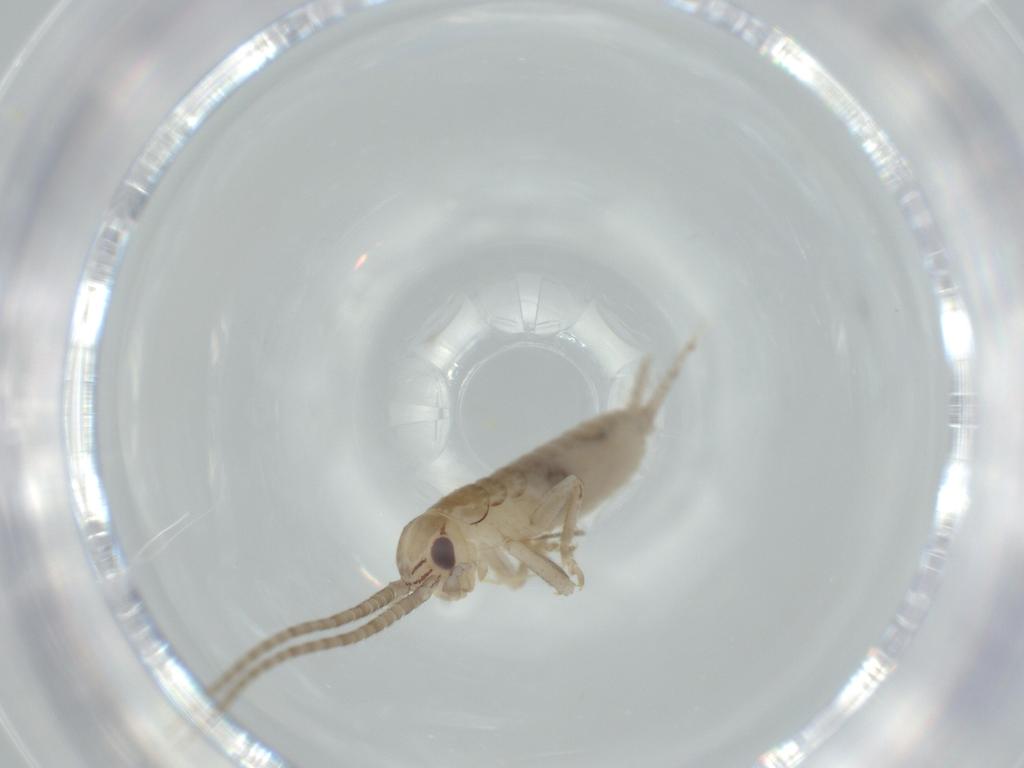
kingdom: Animalia
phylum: Arthropoda
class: Insecta
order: Orthoptera
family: Gryllidae
